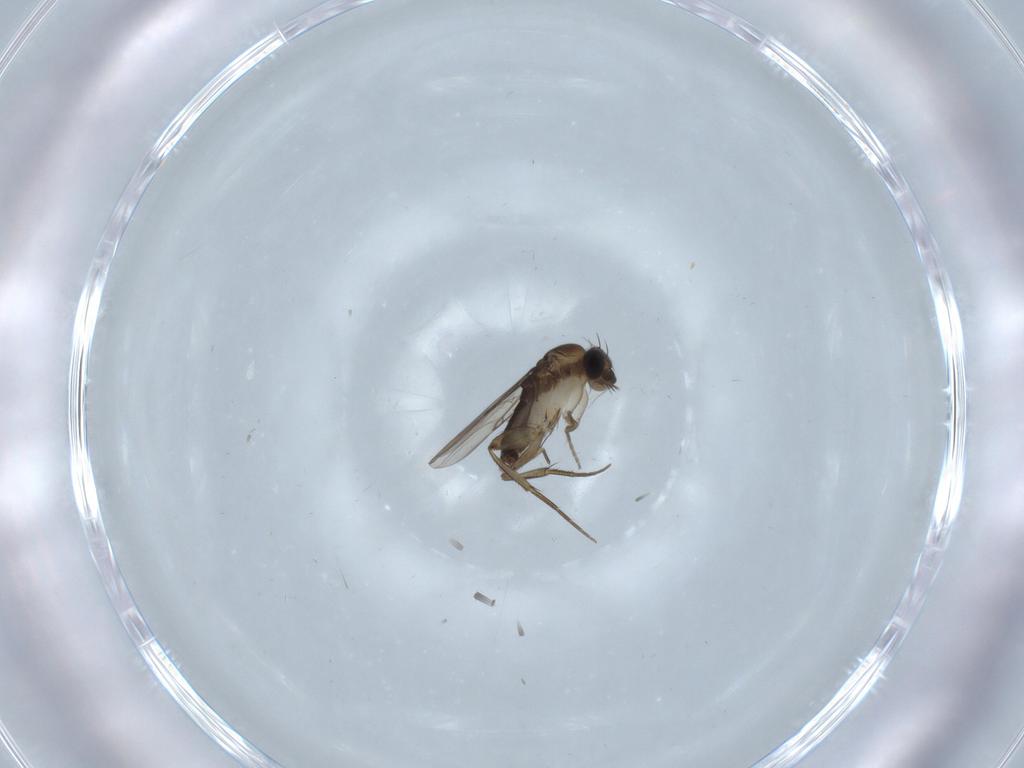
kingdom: Animalia
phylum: Arthropoda
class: Insecta
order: Diptera
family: Phoridae
